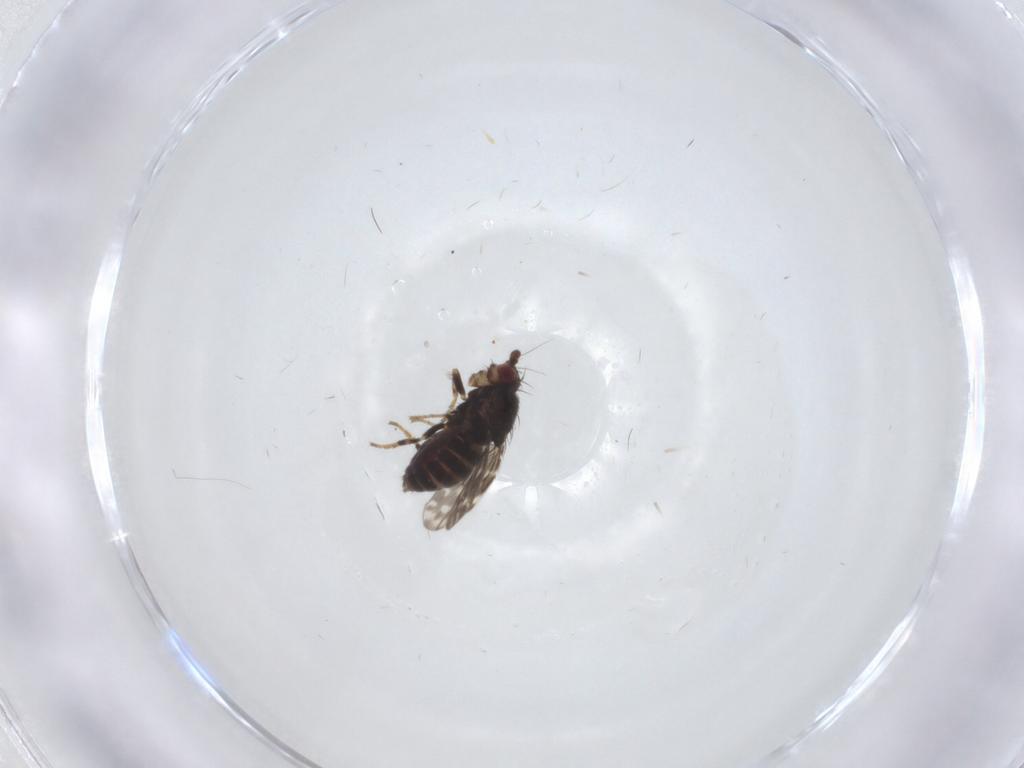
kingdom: Animalia
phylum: Arthropoda
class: Insecta
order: Diptera
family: Sphaeroceridae
